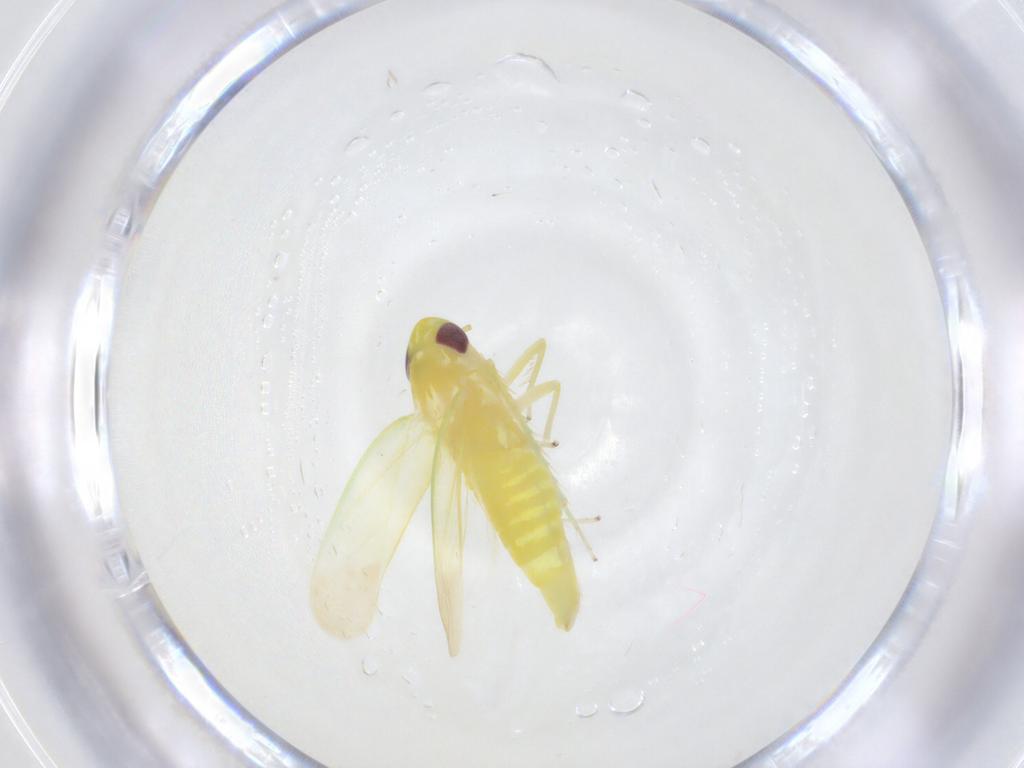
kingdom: Animalia
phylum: Arthropoda
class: Insecta
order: Hemiptera
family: Cicadellidae
